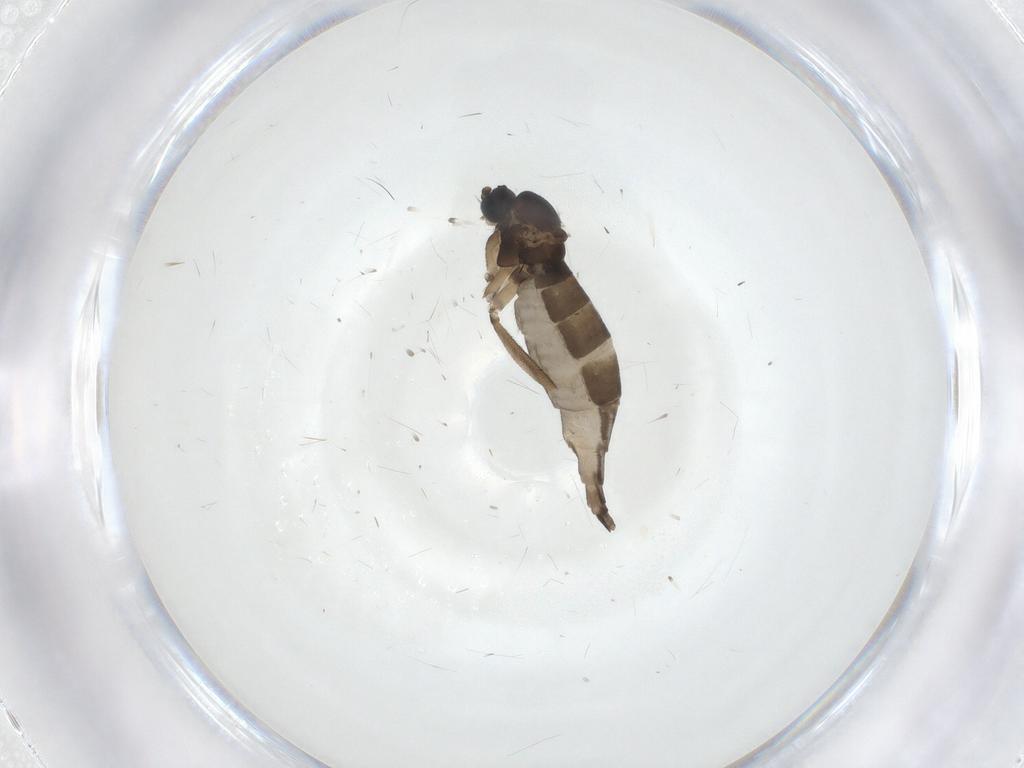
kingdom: Animalia
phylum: Arthropoda
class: Insecta
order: Diptera
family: Sciaridae
